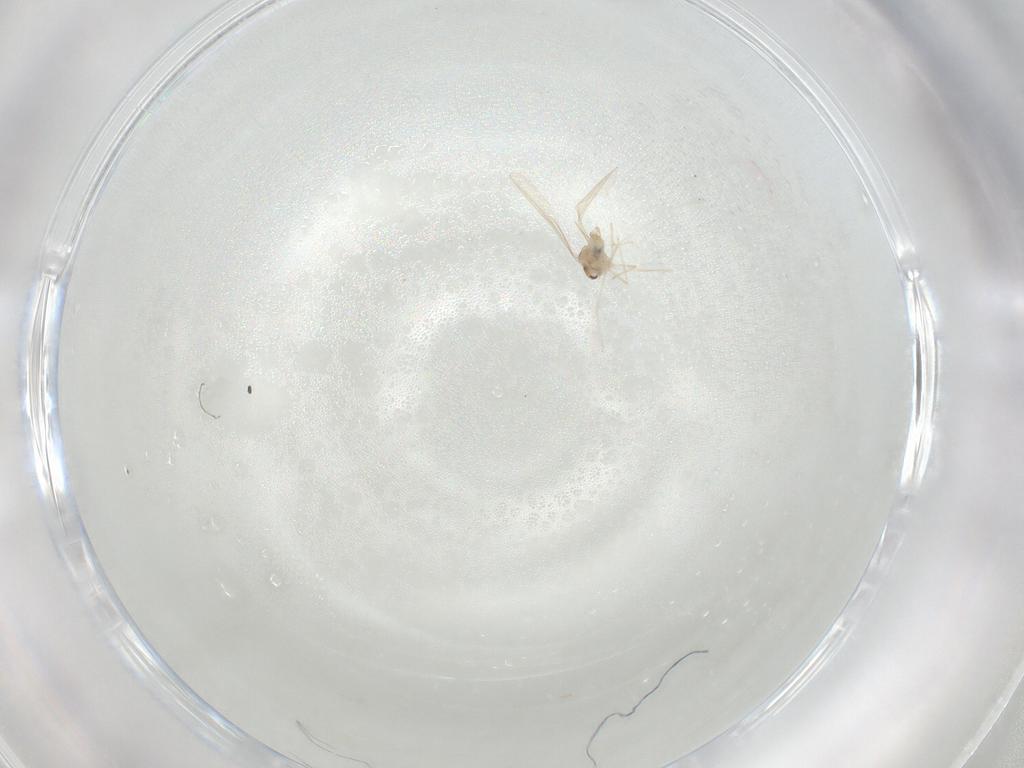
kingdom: Animalia
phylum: Arthropoda
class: Insecta
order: Diptera
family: Cecidomyiidae
